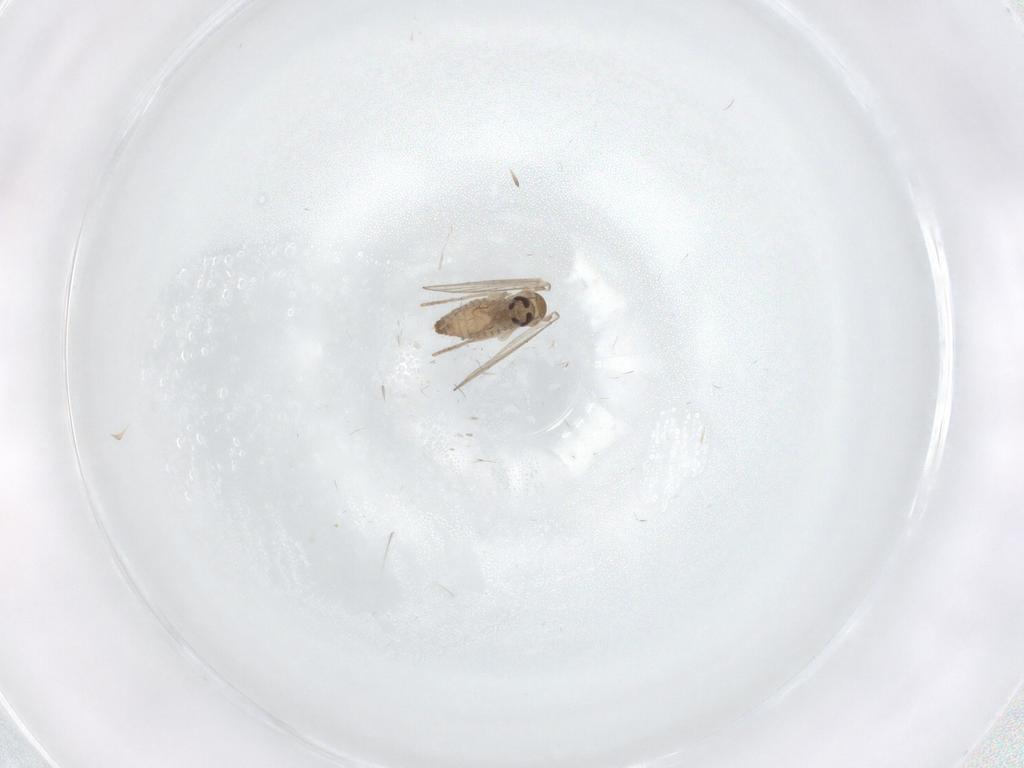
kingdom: Animalia
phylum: Arthropoda
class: Insecta
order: Diptera
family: Psychodidae
